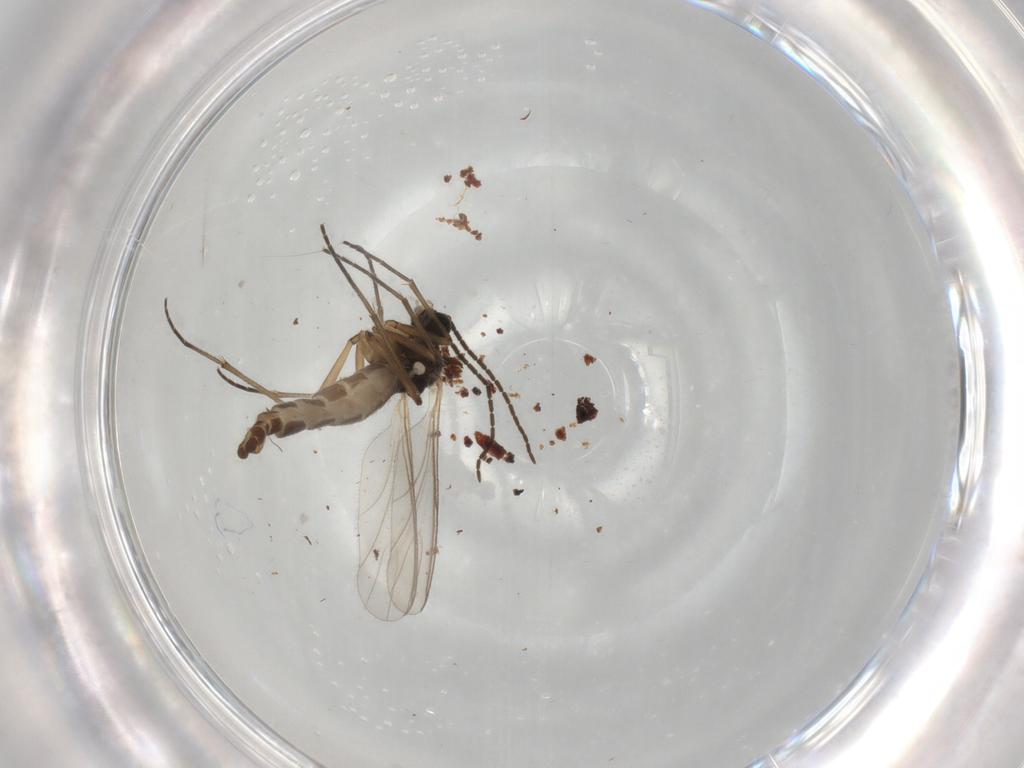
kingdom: Animalia
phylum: Arthropoda
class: Insecta
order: Diptera
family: Chironomidae
